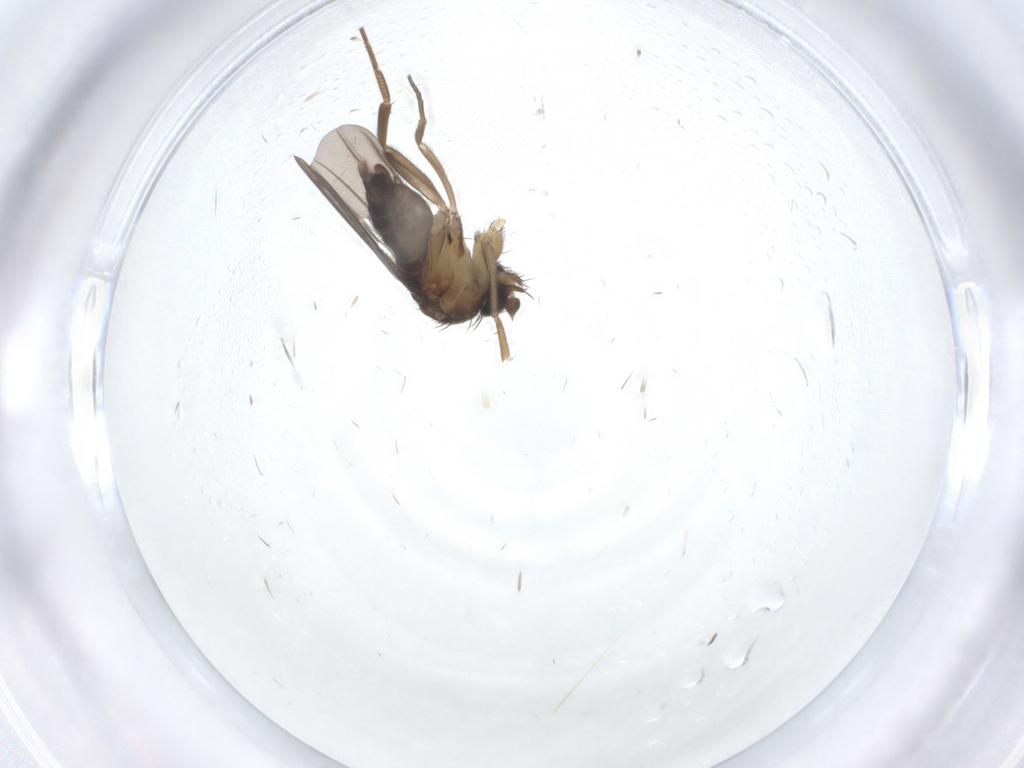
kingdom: Animalia
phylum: Arthropoda
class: Insecta
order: Diptera
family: Cecidomyiidae
